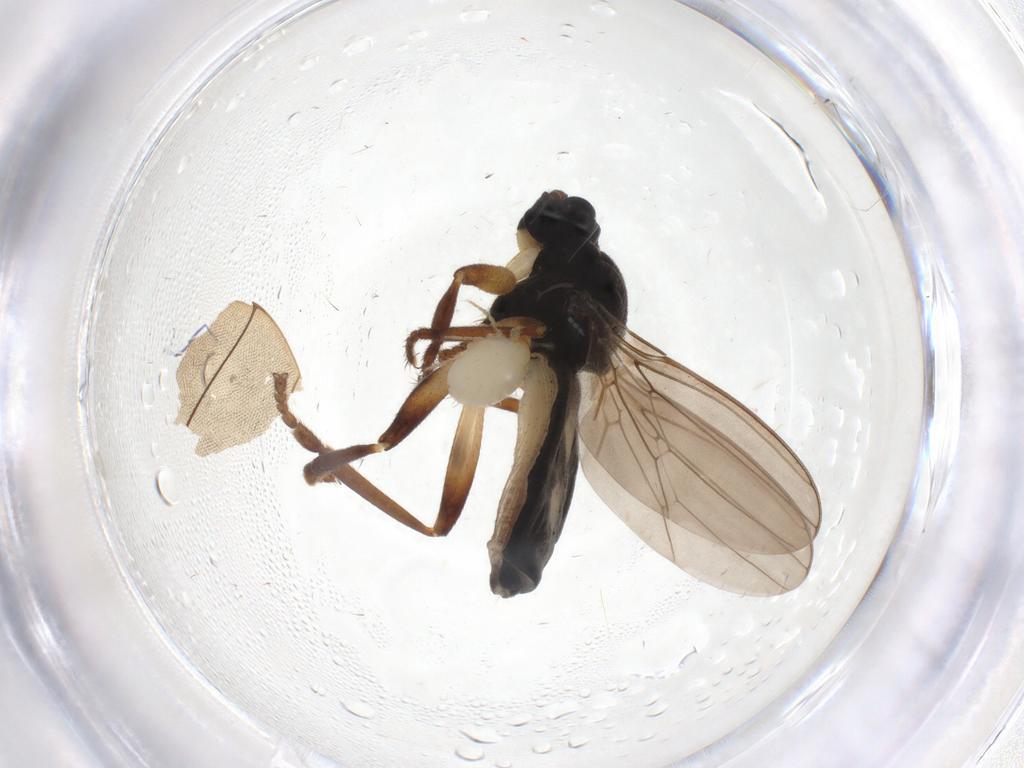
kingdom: Animalia
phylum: Arthropoda
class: Insecta
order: Diptera
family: Sphaeroceridae
